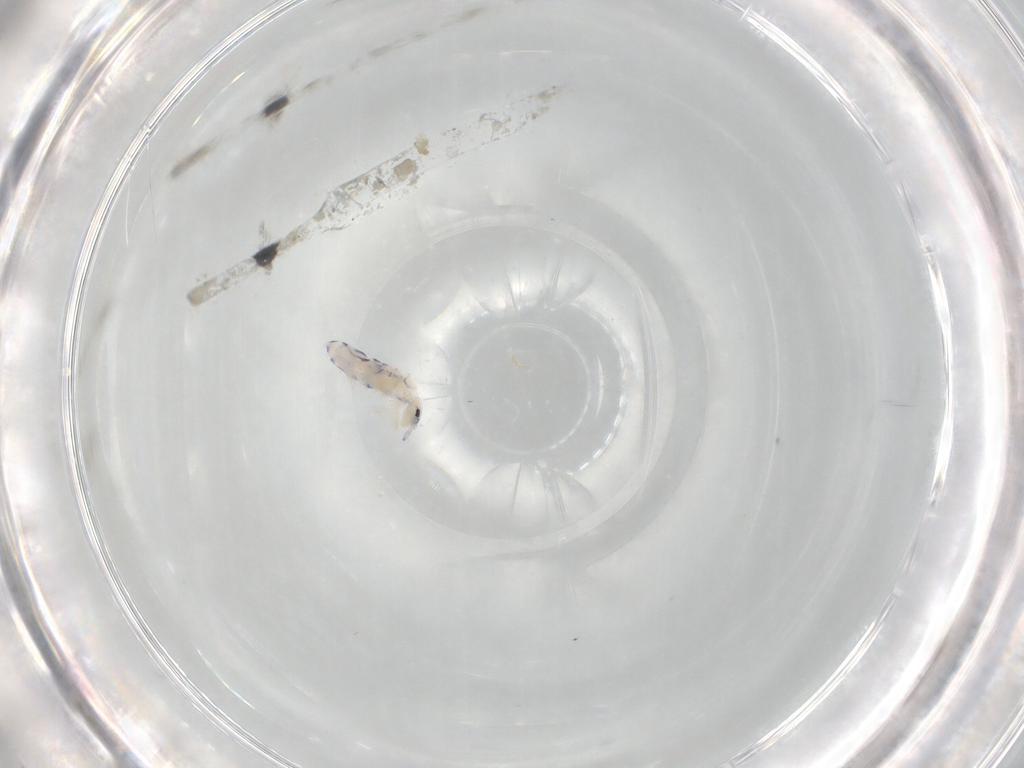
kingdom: Animalia
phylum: Arthropoda
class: Collembola
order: Entomobryomorpha
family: Entomobryidae
